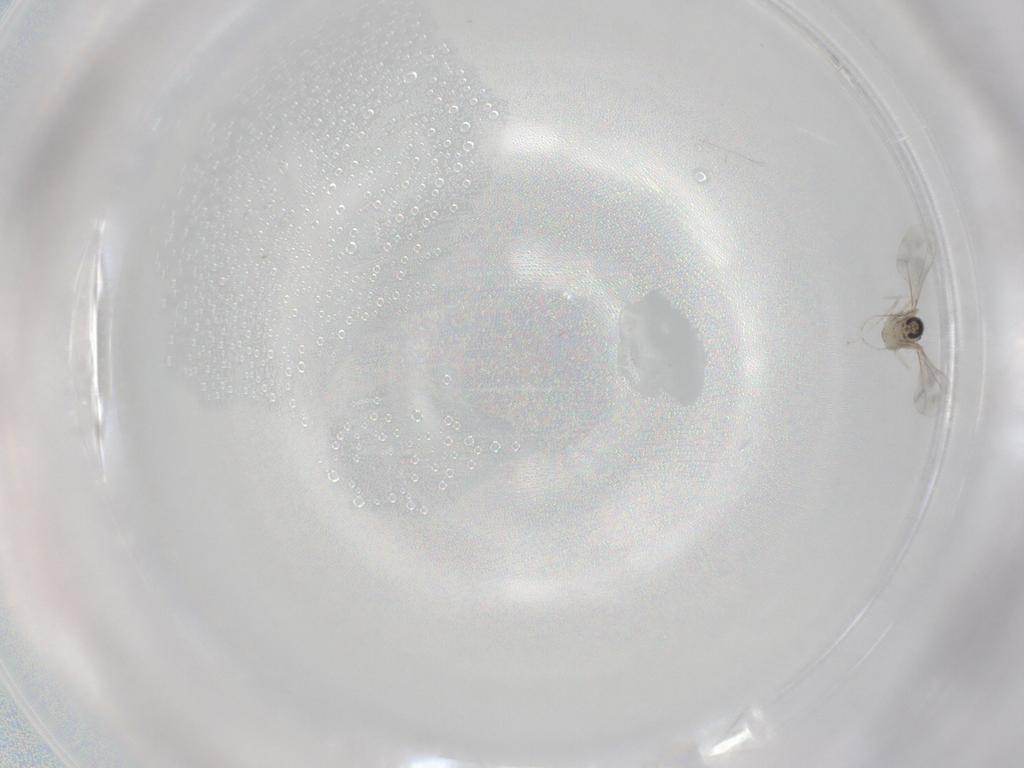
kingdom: Animalia
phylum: Arthropoda
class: Insecta
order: Diptera
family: Cecidomyiidae
